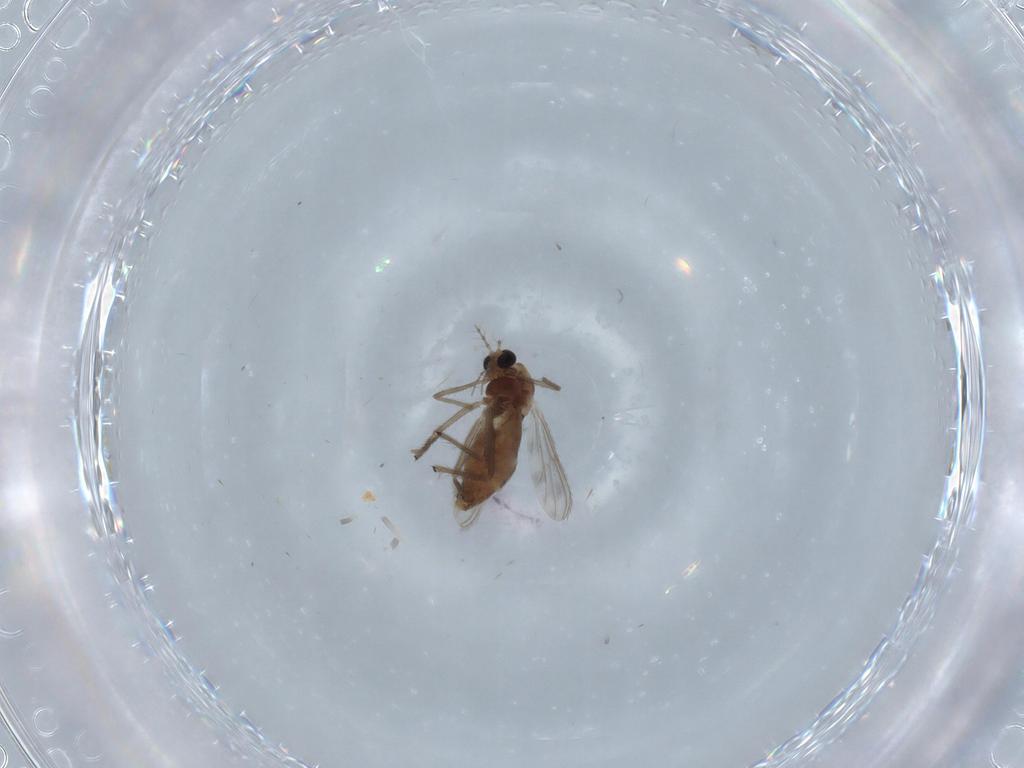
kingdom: Animalia
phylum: Arthropoda
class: Insecta
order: Diptera
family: Stratiomyidae
